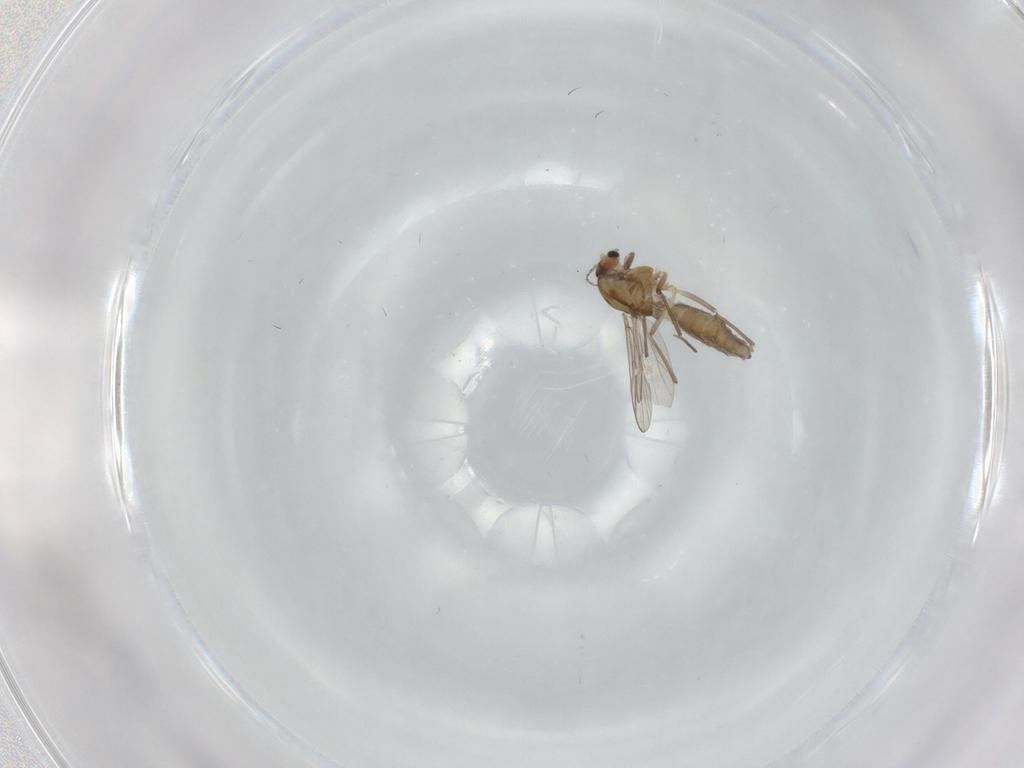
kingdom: Animalia
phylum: Arthropoda
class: Insecta
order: Diptera
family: Chironomidae
